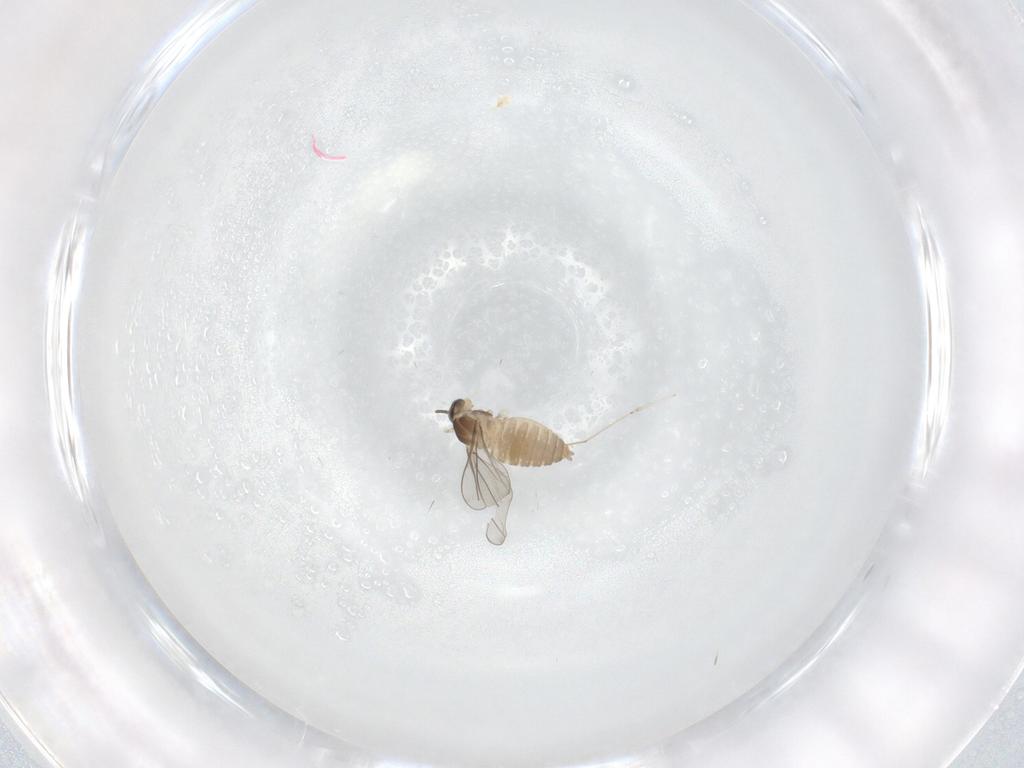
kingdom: Animalia
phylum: Arthropoda
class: Insecta
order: Diptera
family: Cecidomyiidae
